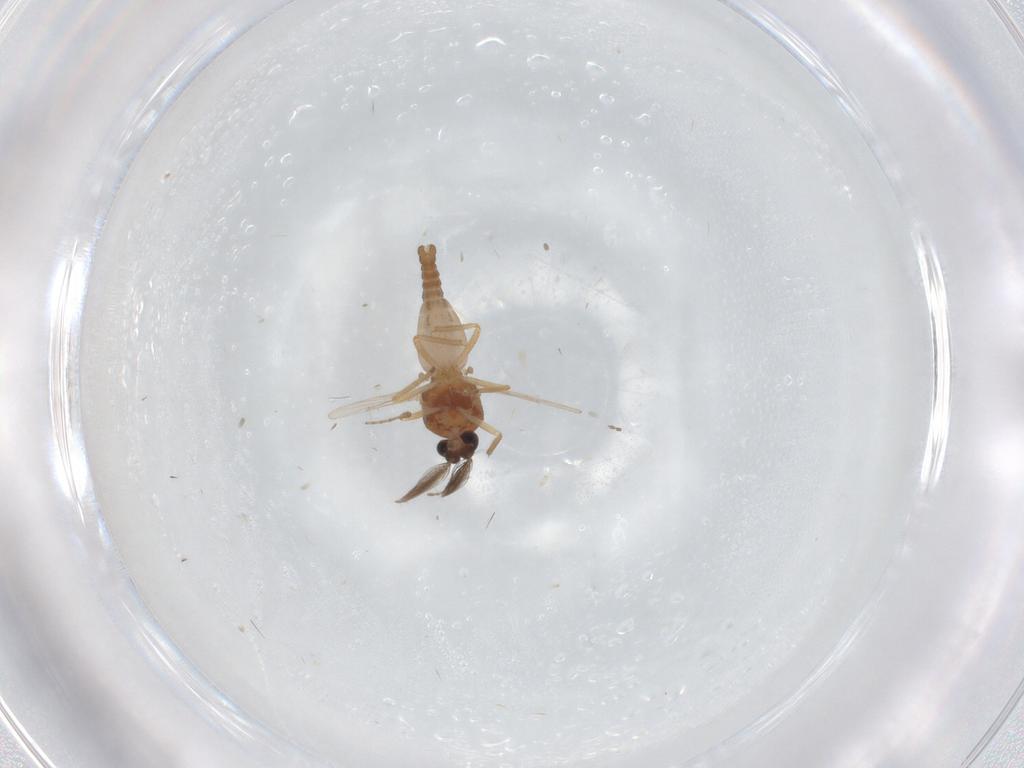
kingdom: Animalia
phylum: Arthropoda
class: Insecta
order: Diptera
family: Ceratopogonidae
